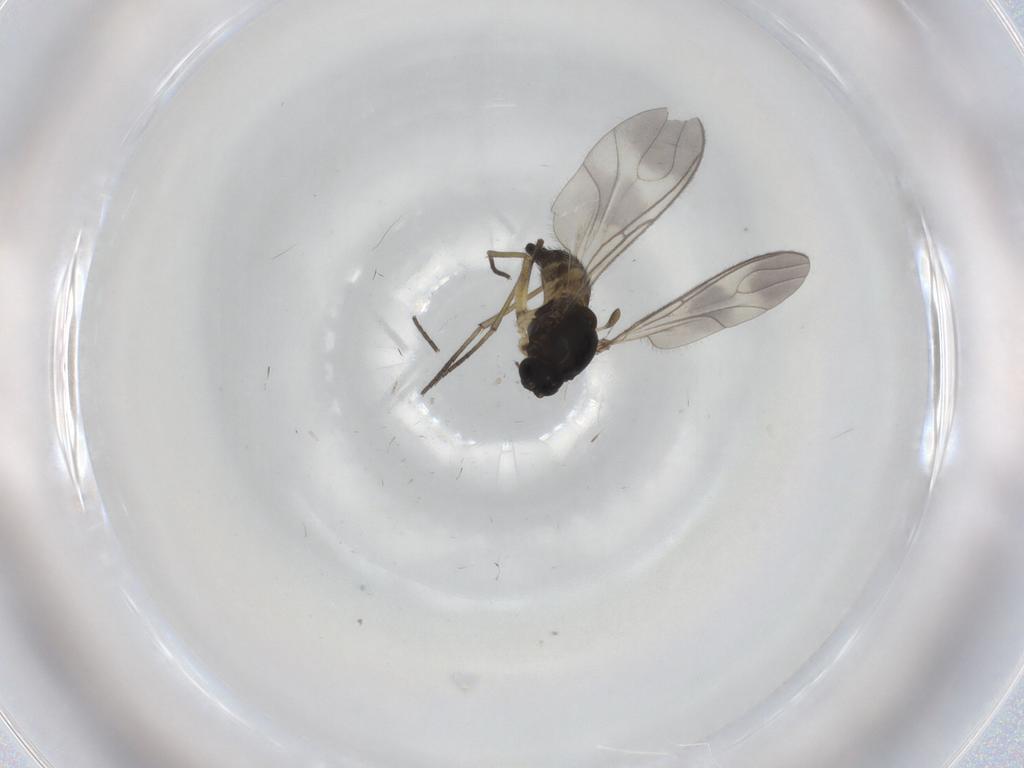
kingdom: Animalia
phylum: Arthropoda
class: Insecta
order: Diptera
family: Sciaridae
